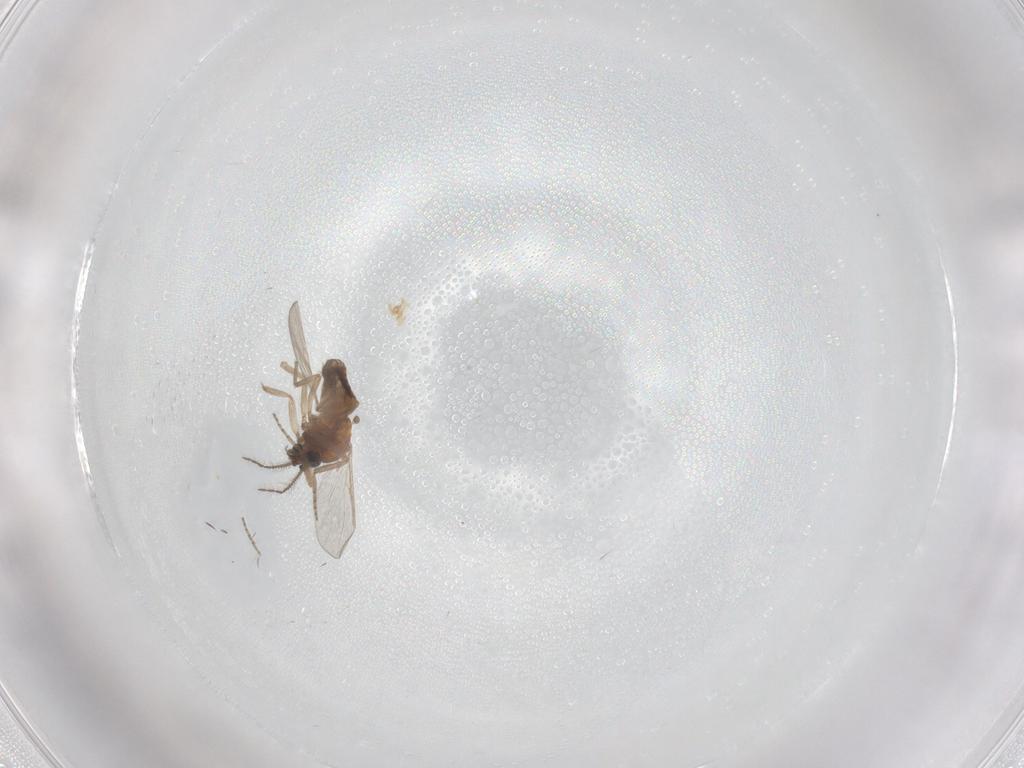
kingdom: Animalia
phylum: Arthropoda
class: Insecta
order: Diptera
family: Ceratopogonidae
